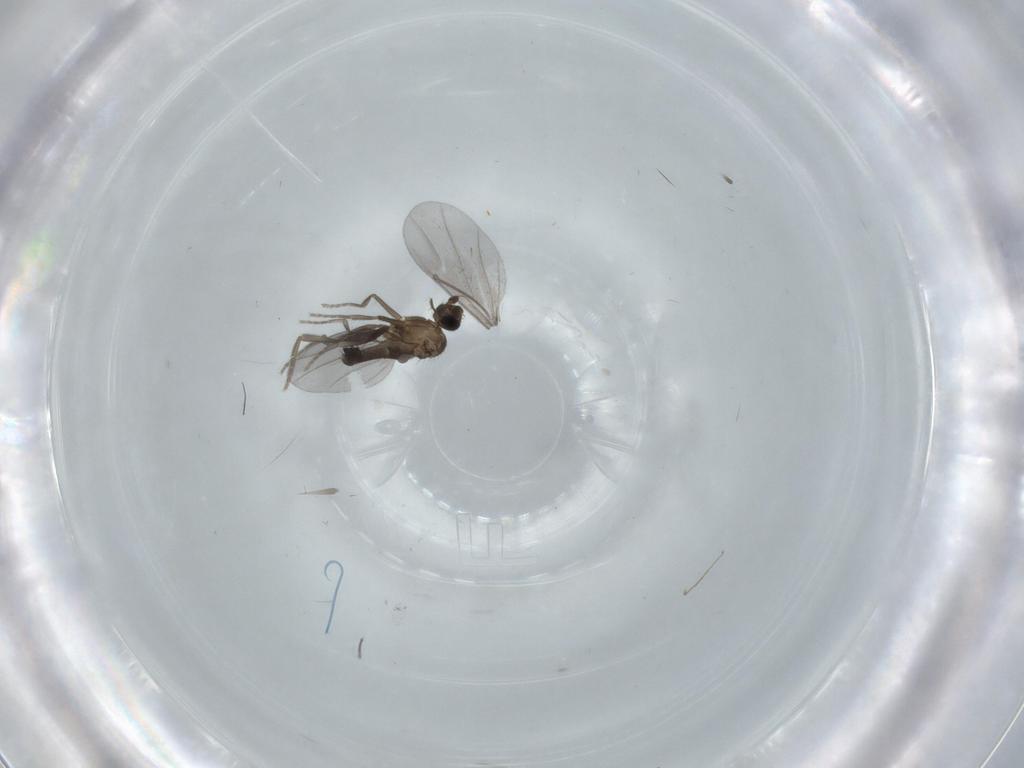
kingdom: Animalia
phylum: Arthropoda
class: Insecta
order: Diptera
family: Phoridae
